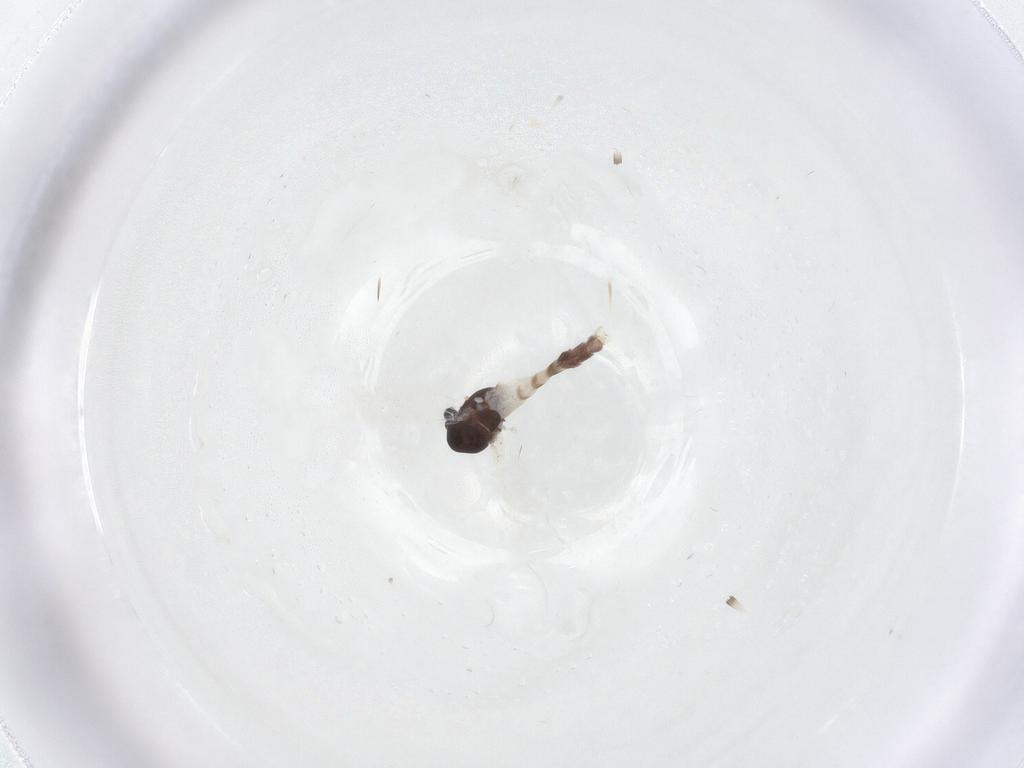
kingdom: Animalia
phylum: Arthropoda
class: Insecta
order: Diptera
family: Chironomidae
